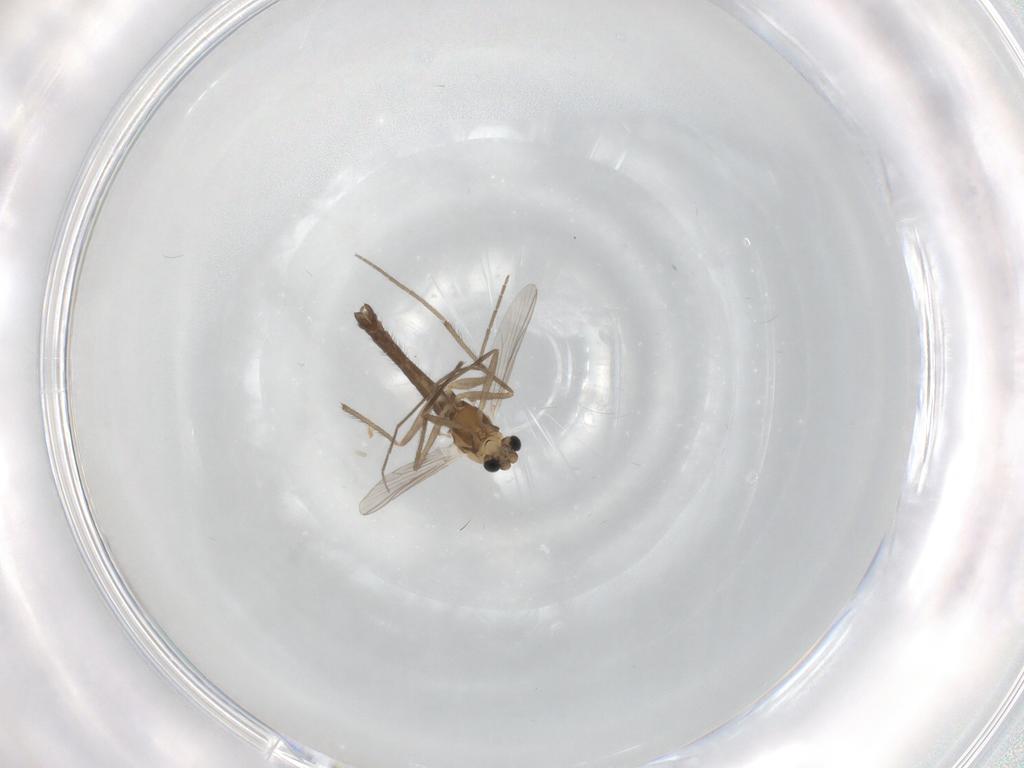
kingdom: Animalia
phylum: Arthropoda
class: Insecta
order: Diptera
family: Chironomidae
